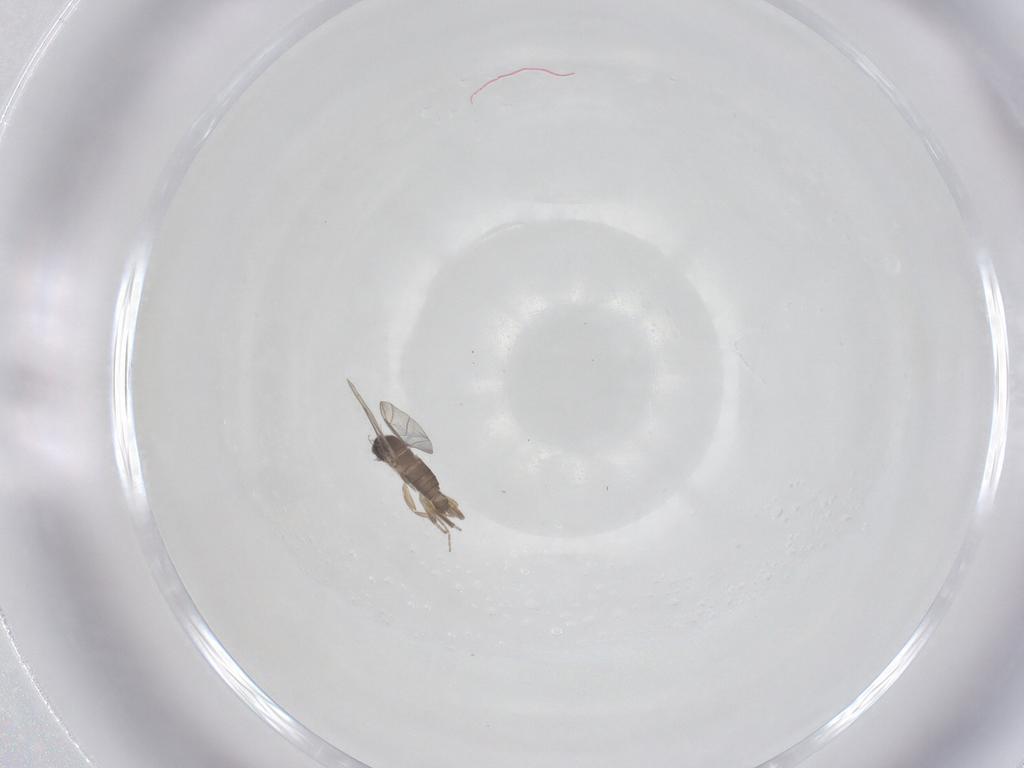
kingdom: Animalia
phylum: Arthropoda
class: Insecta
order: Diptera
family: Phoridae
